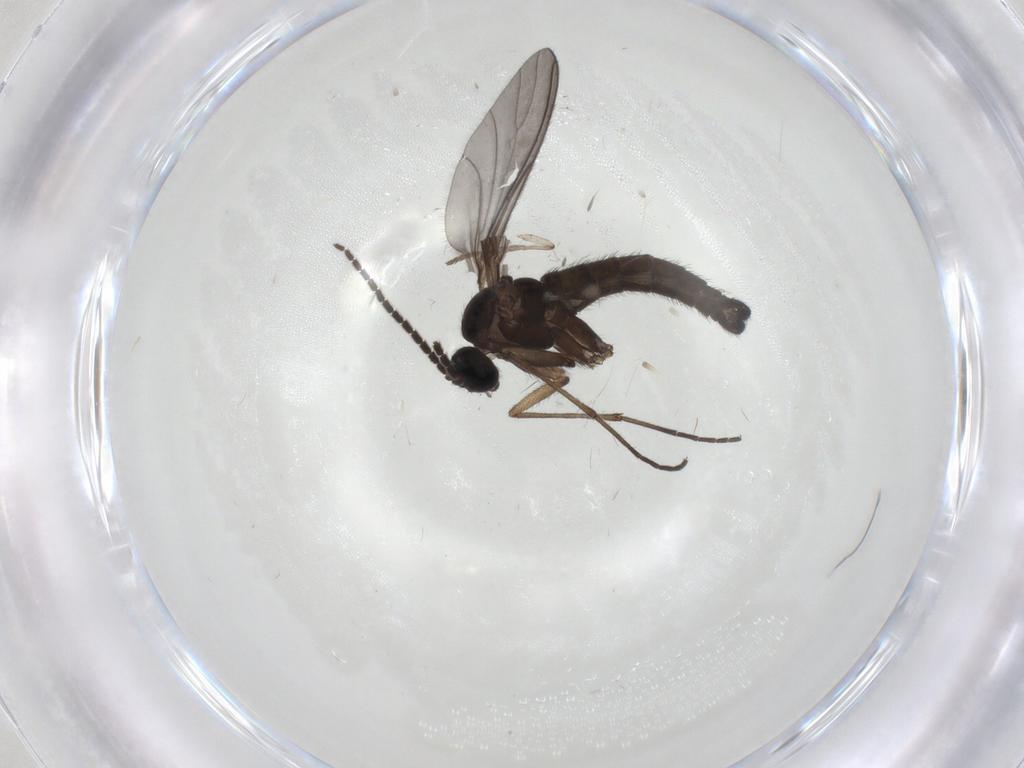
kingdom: Animalia
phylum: Arthropoda
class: Insecta
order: Diptera
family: Sciaridae
